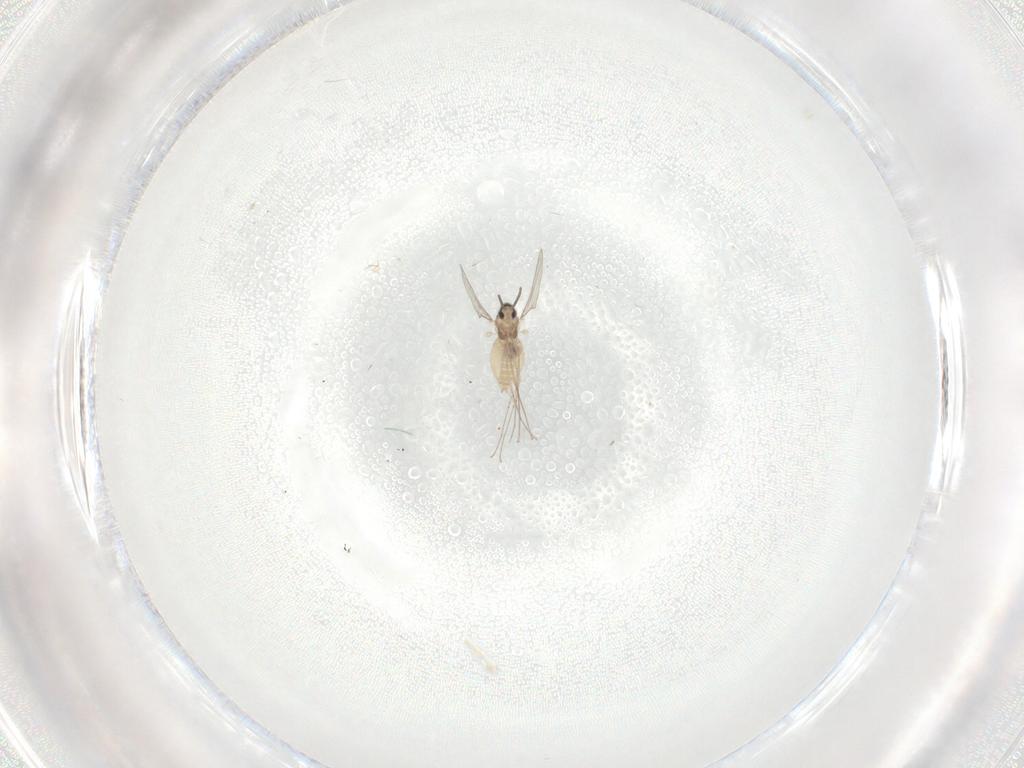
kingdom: Animalia
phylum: Arthropoda
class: Insecta
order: Diptera
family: Cecidomyiidae
